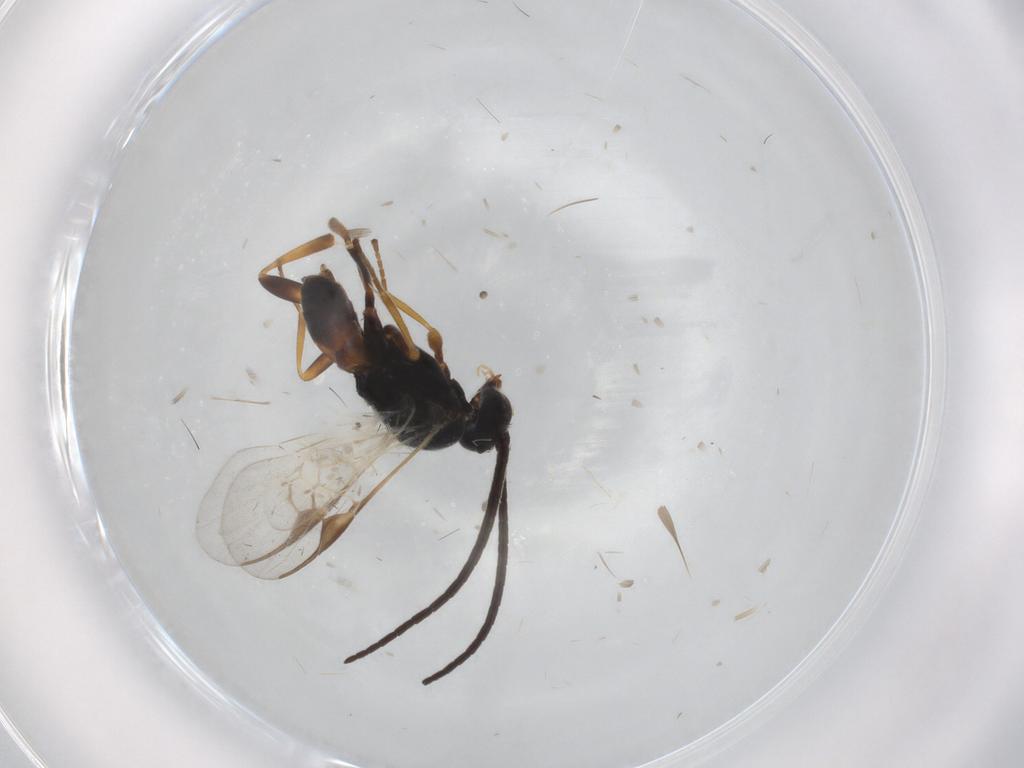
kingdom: Animalia
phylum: Arthropoda
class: Insecta
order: Hymenoptera
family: Braconidae
